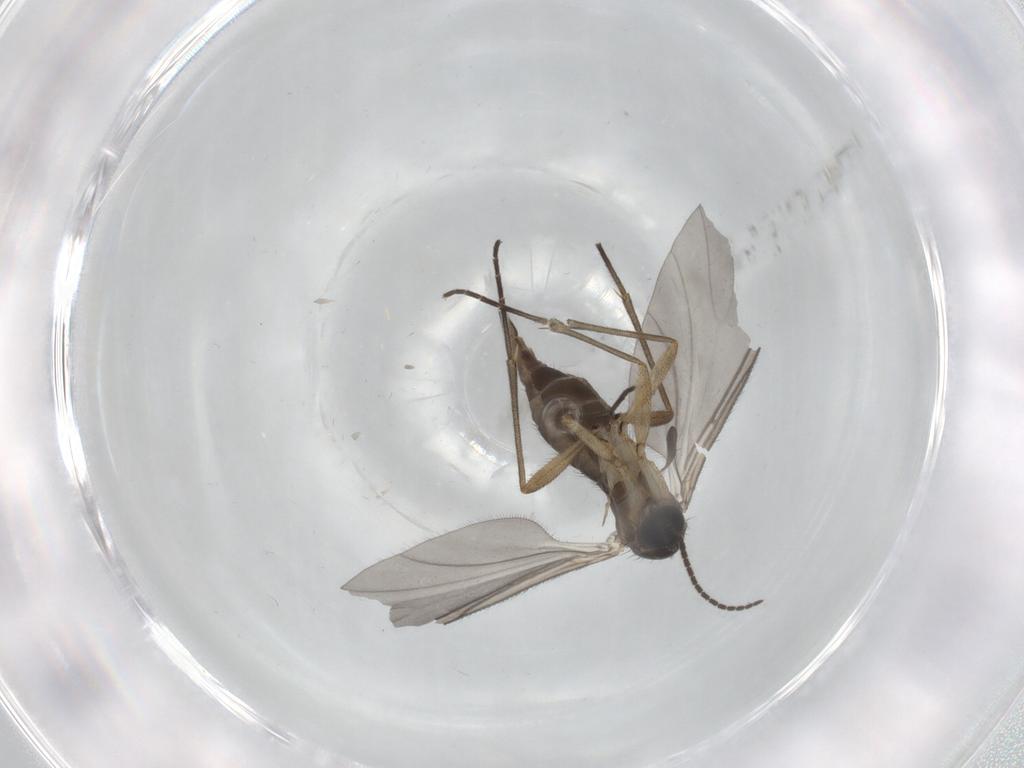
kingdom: Animalia
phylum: Arthropoda
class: Insecta
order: Diptera
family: Sciaridae
